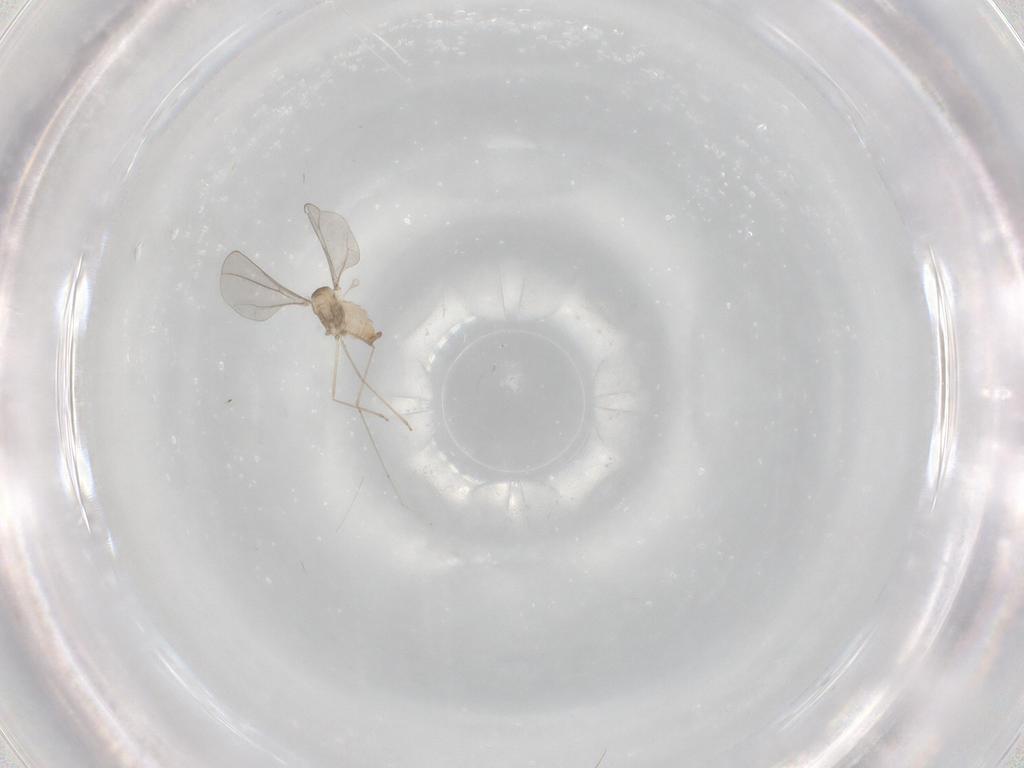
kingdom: Animalia
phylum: Arthropoda
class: Insecta
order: Diptera
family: Cecidomyiidae
